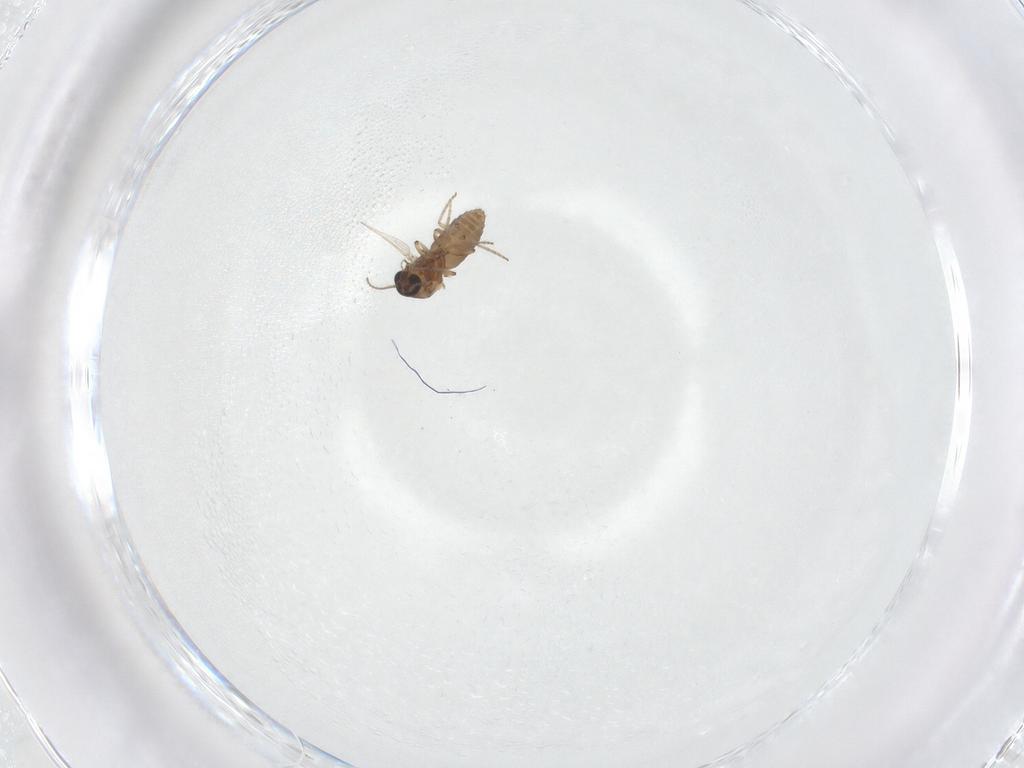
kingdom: Animalia
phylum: Arthropoda
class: Insecta
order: Diptera
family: Ceratopogonidae
